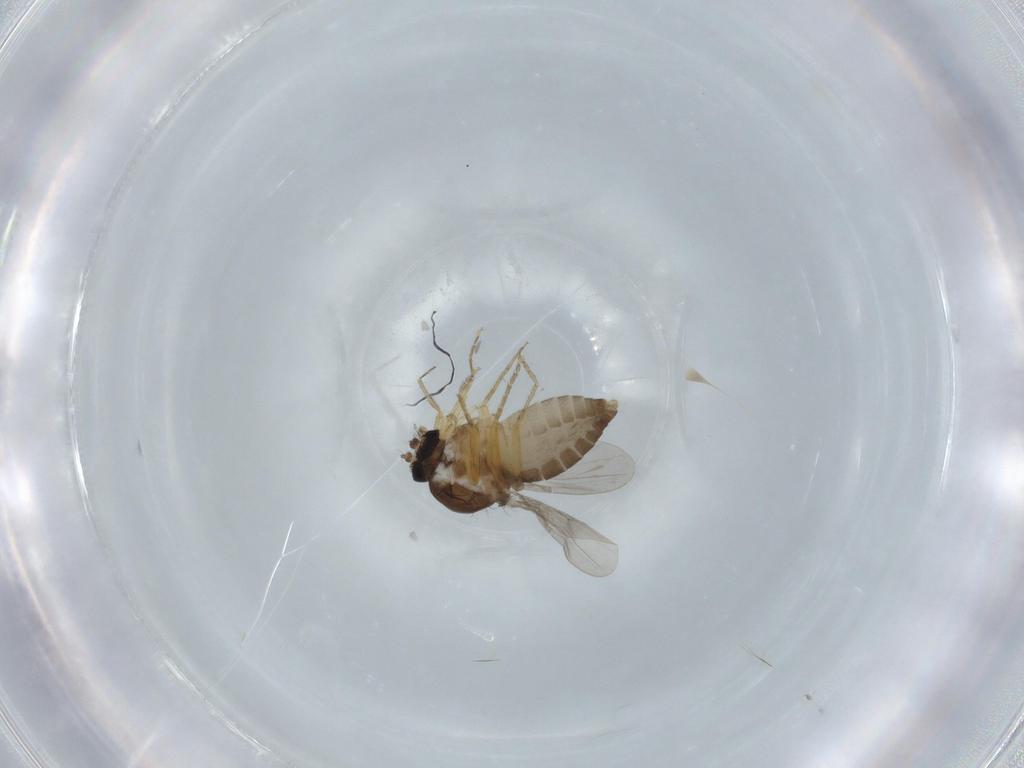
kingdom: Animalia
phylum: Arthropoda
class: Insecta
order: Diptera
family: Ceratopogonidae
